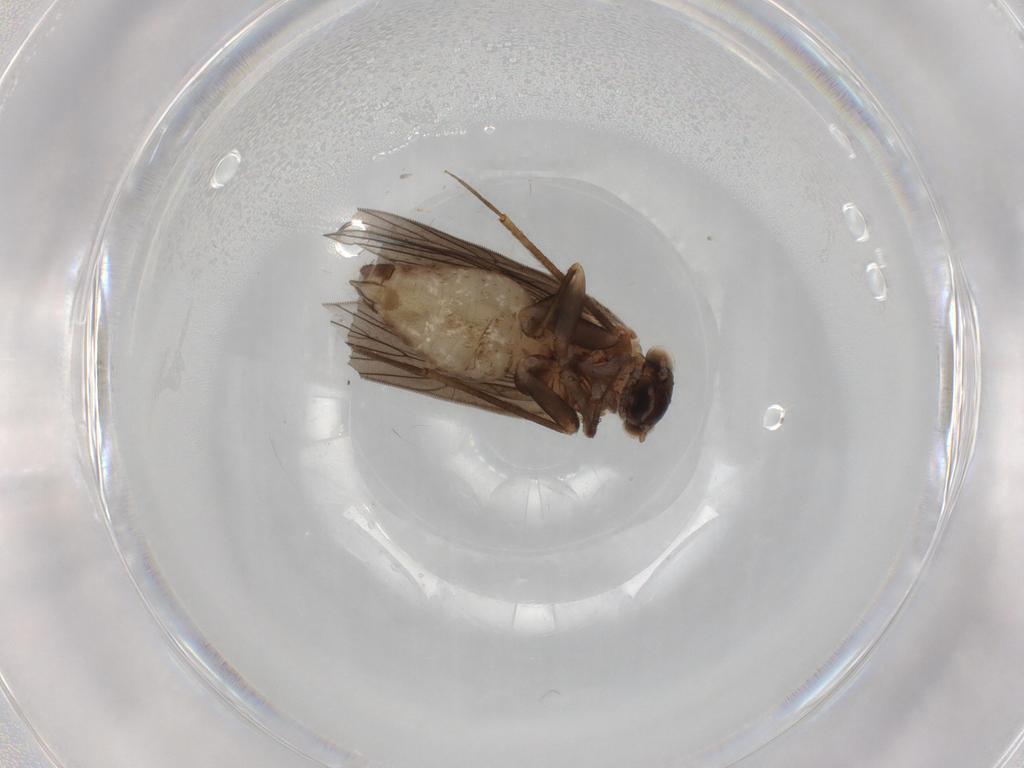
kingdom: Animalia
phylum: Arthropoda
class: Insecta
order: Psocodea
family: Lepidopsocidae
